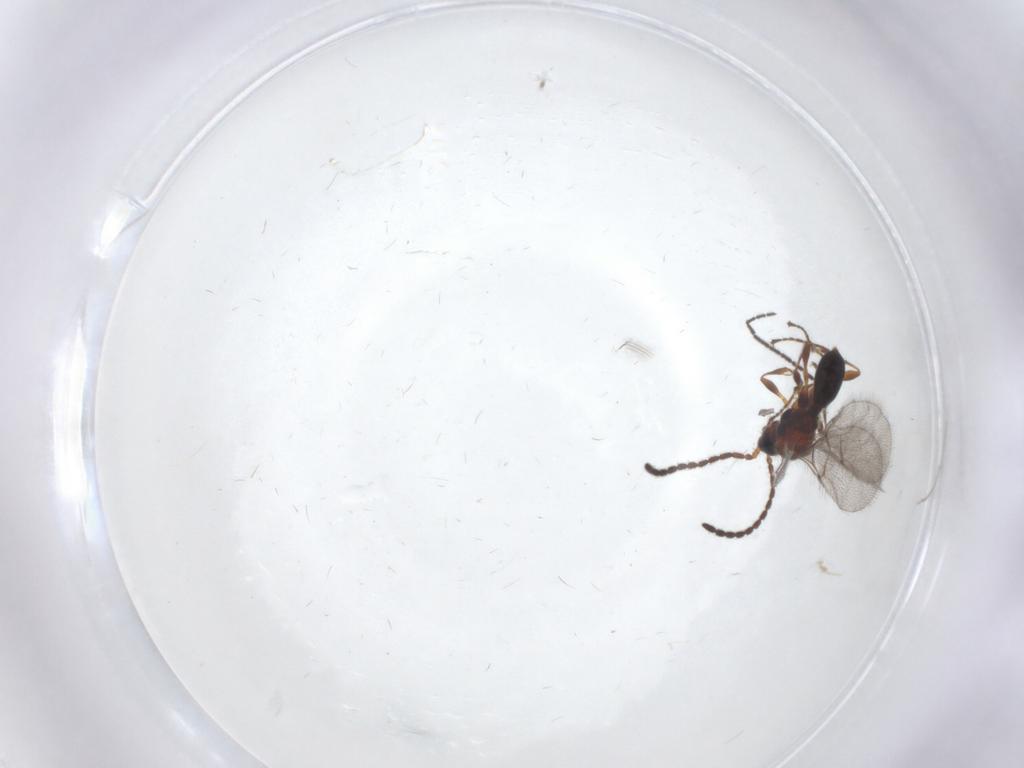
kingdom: Animalia
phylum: Arthropoda
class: Insecta
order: Hymenoptera
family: Diapriidae
